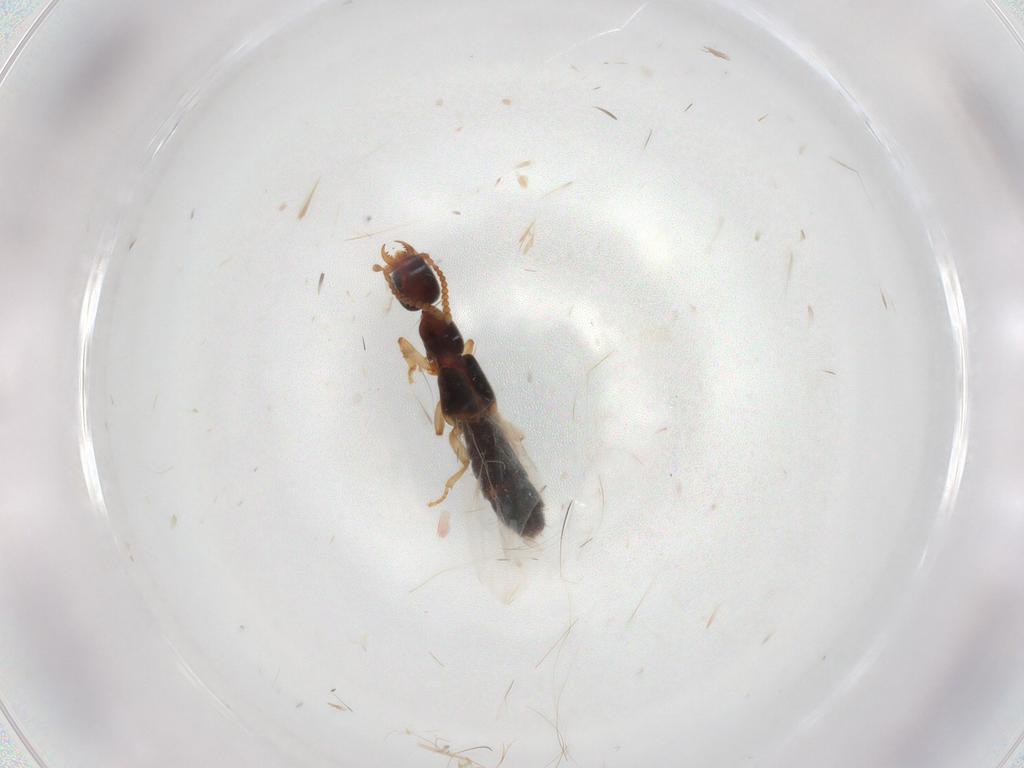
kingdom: Animalia
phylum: Arthropoda
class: Insecta
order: Coleoptera
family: Staphylinidae
